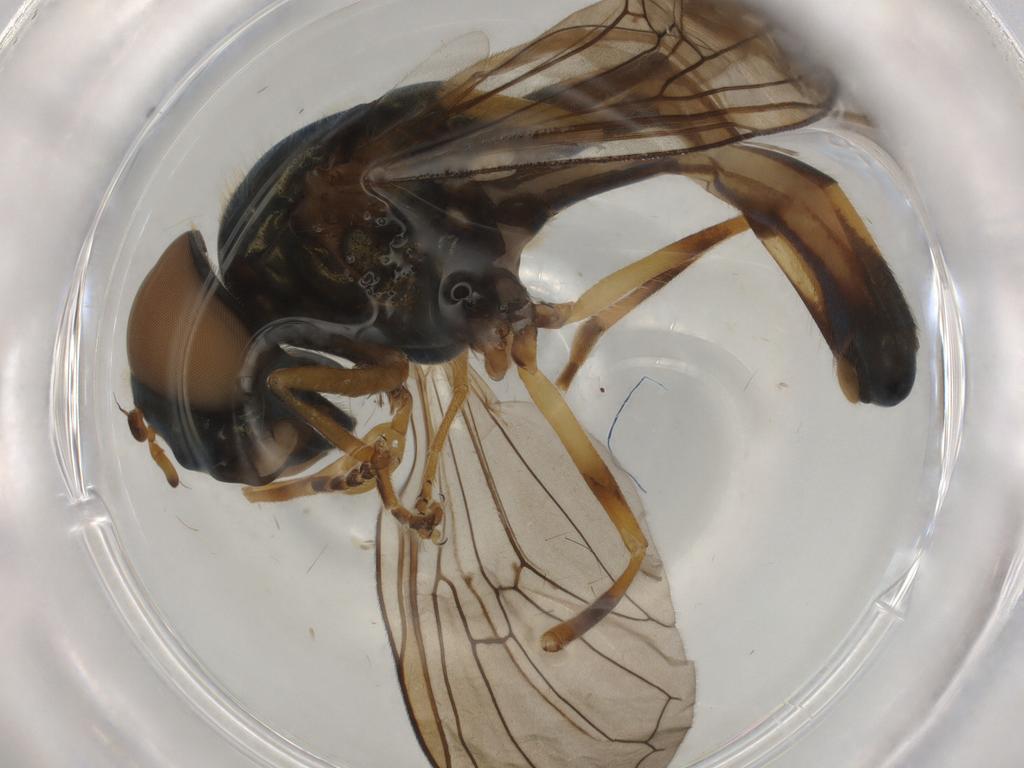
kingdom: Animalia
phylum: Arthropoda
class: Insecta
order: Diptera
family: Syrphidae
